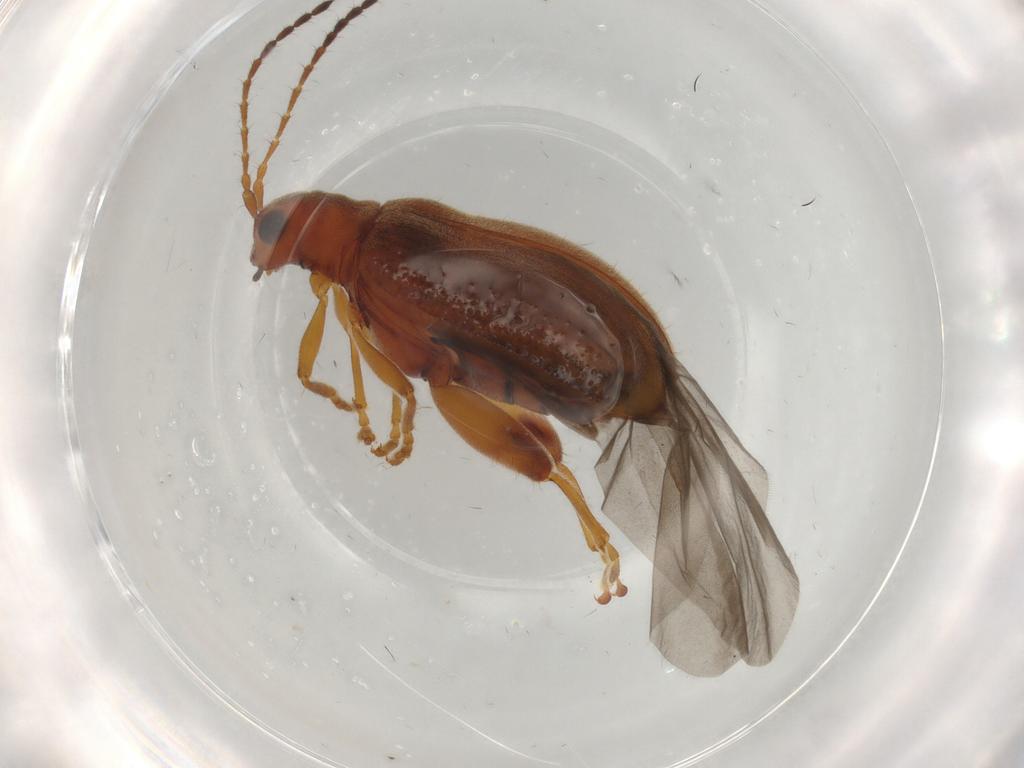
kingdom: Animalia
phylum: Arthropoda
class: Insecta
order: Coleoptera
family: Chrysomelidae
